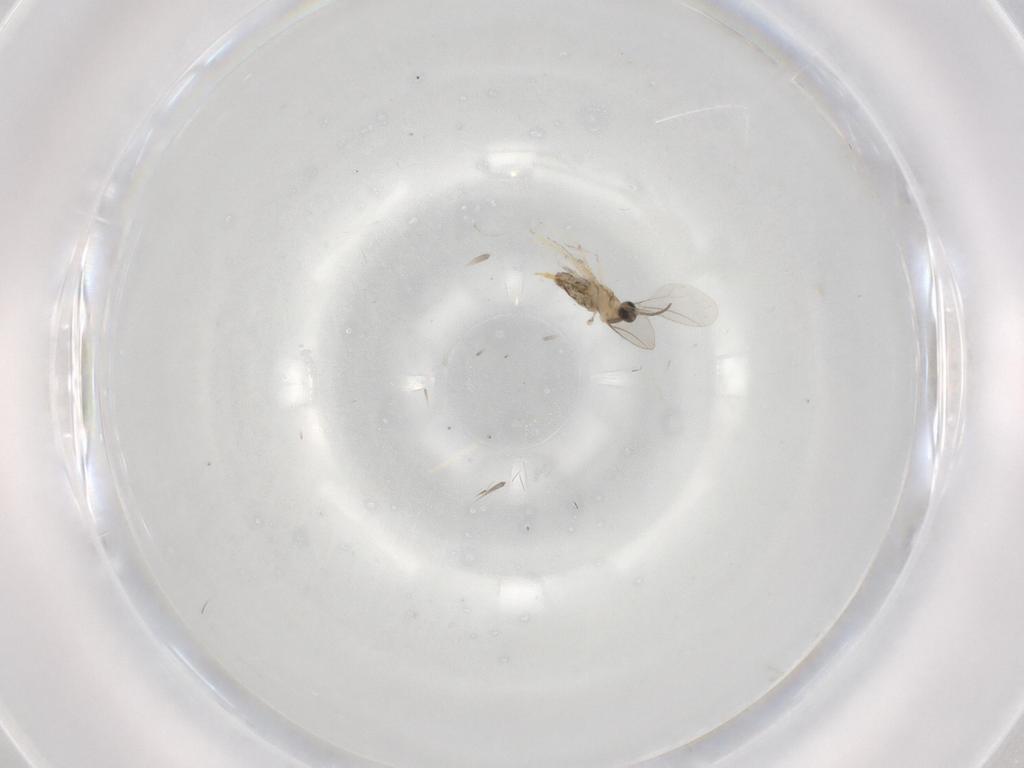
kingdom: Animalia
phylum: Arthropoda
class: Insecta
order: Diptera
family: Cecidomyiidae
